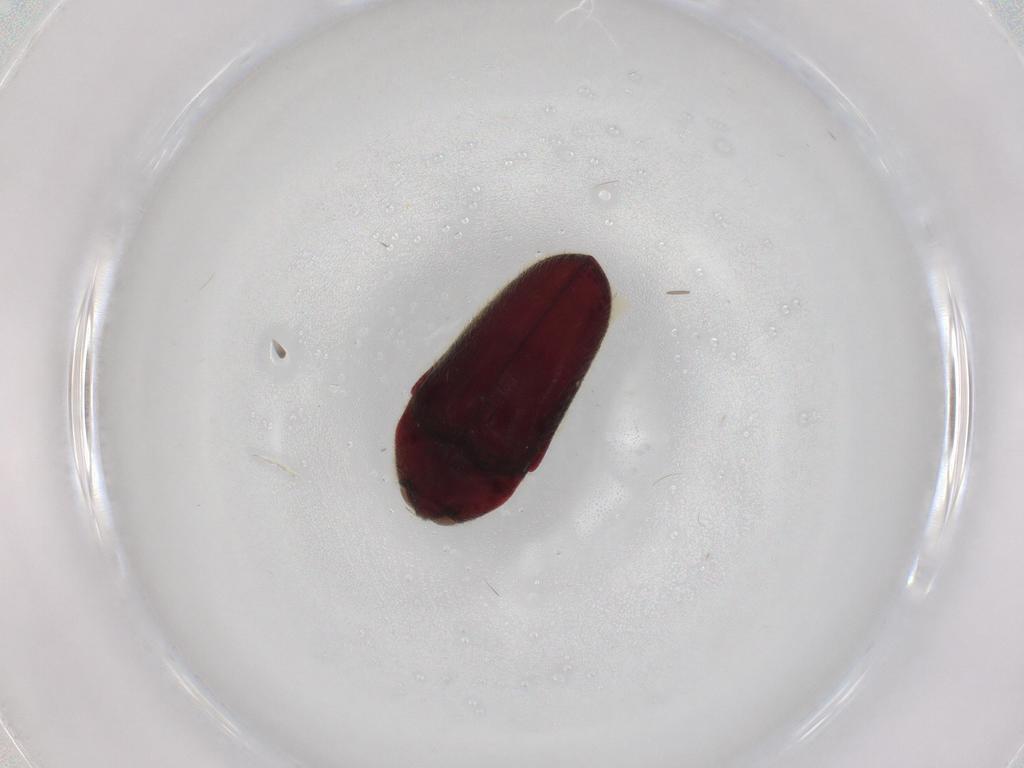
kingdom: Animalia
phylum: Arthropoda
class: Insecta
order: Coleoptera
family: Throscidae
